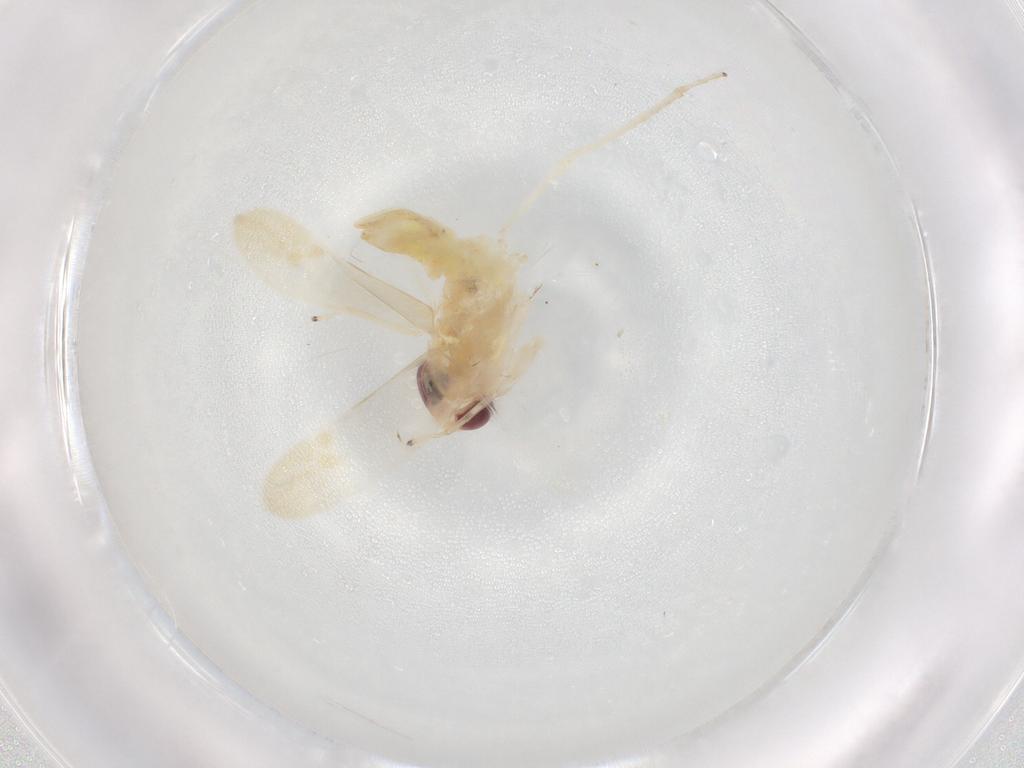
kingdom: Animalia
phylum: Arthropoda
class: Insecta
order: Hemiptera
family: Cicadellidae
